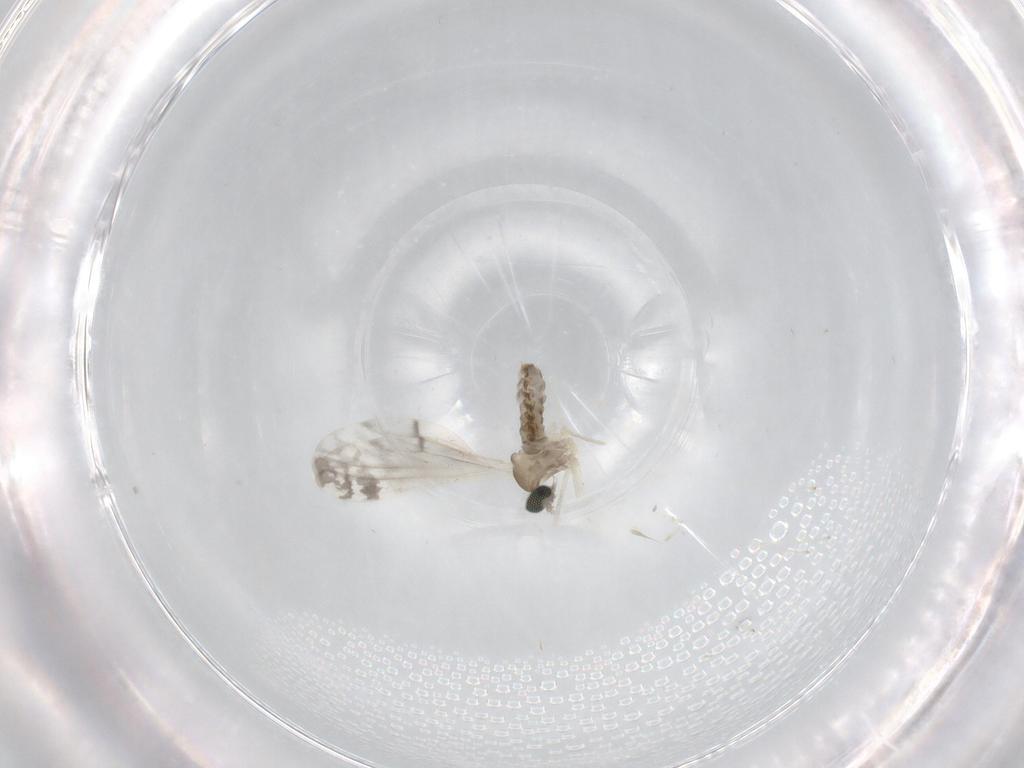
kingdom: Animalia
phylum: Arthropoda
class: Insecta
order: Diptera
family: Cecidomyiidae
